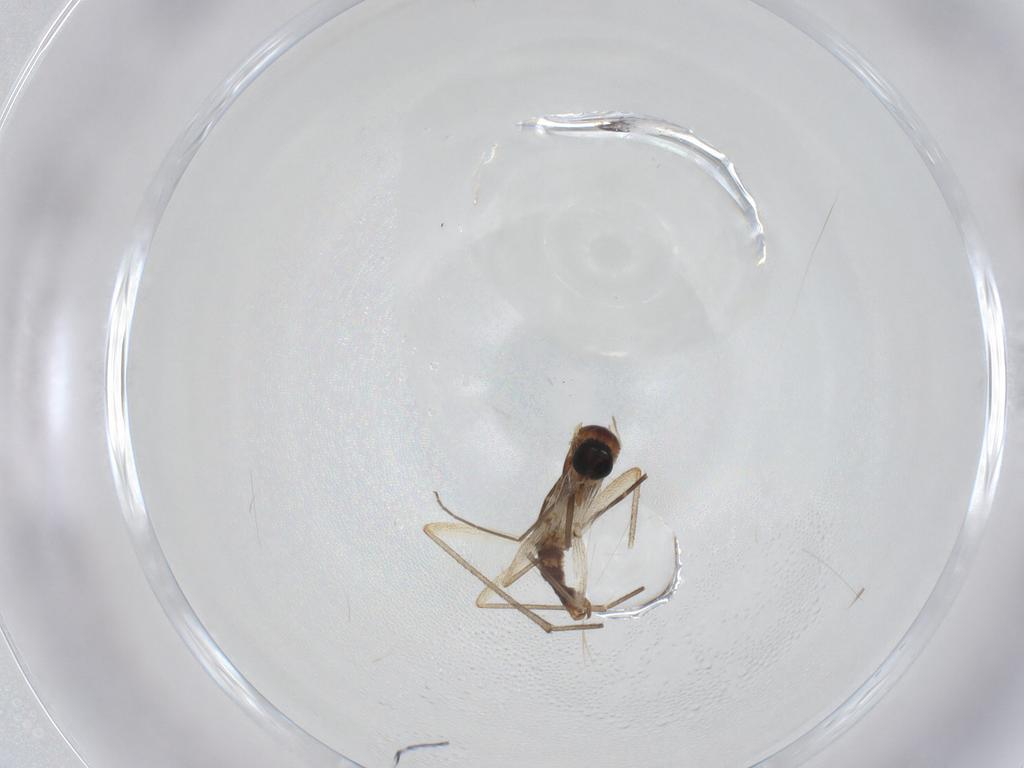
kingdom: Animalia
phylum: Arthropoda
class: Insecta
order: Diptera
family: Sciaridae
